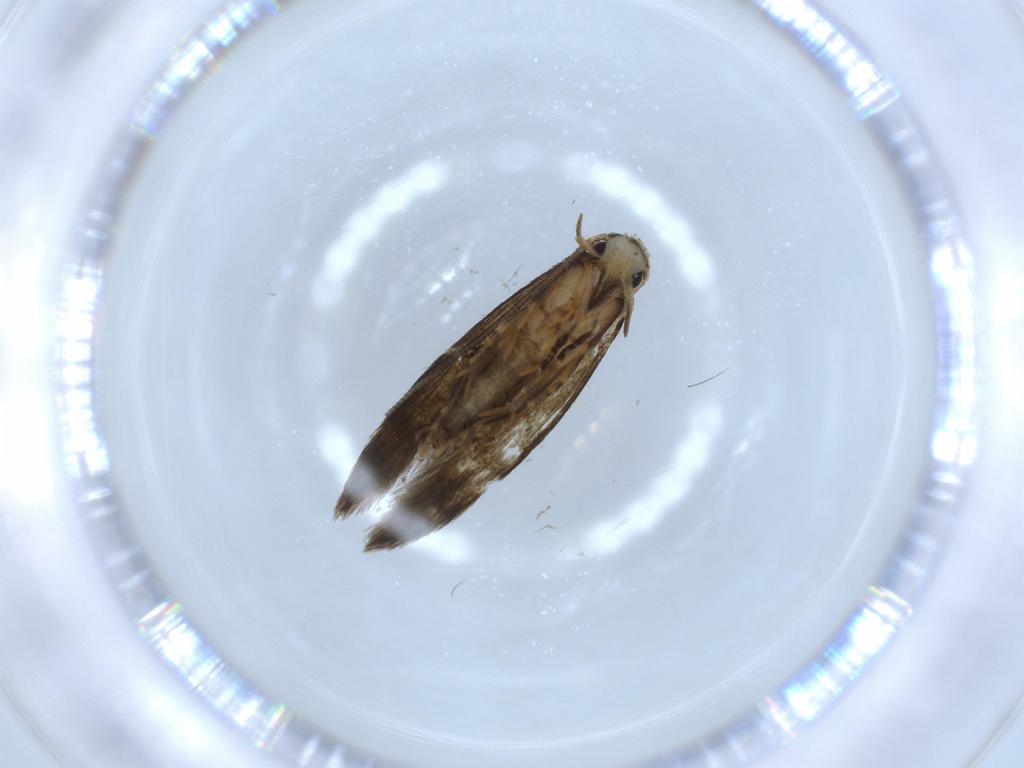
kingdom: Animalia
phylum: Arthropoda
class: Insecta
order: Lepidoptera
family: Tineidae
